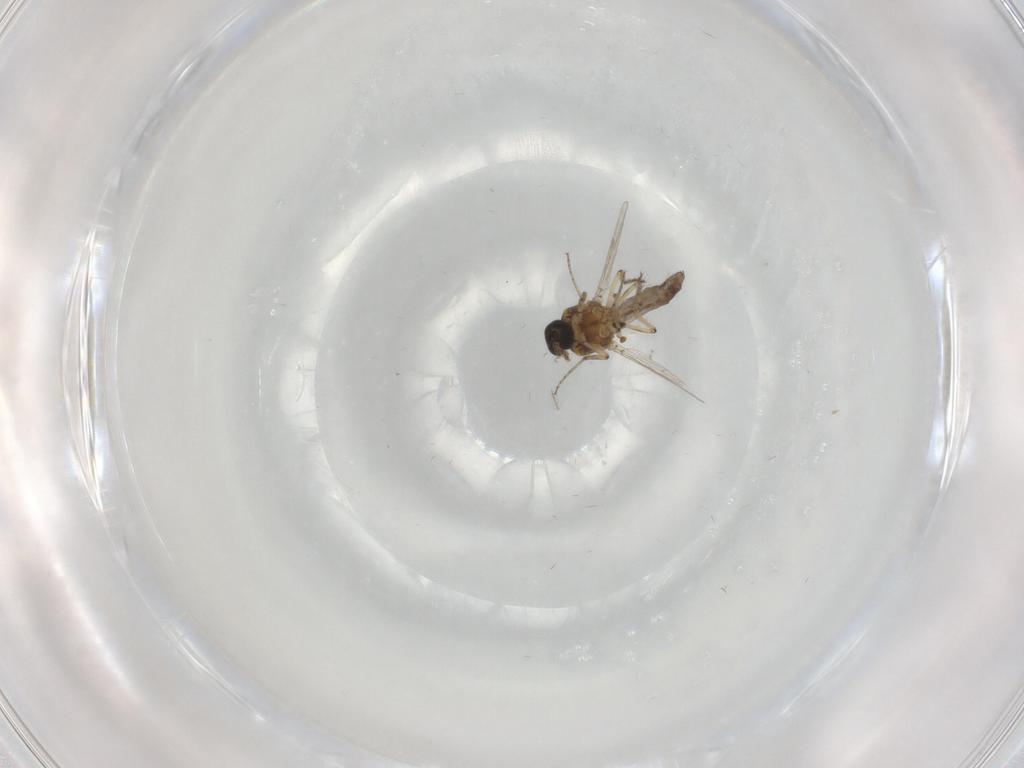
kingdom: Animalia
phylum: Arthropoda
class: Insecta
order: Diptera
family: Ceratopogonidae
